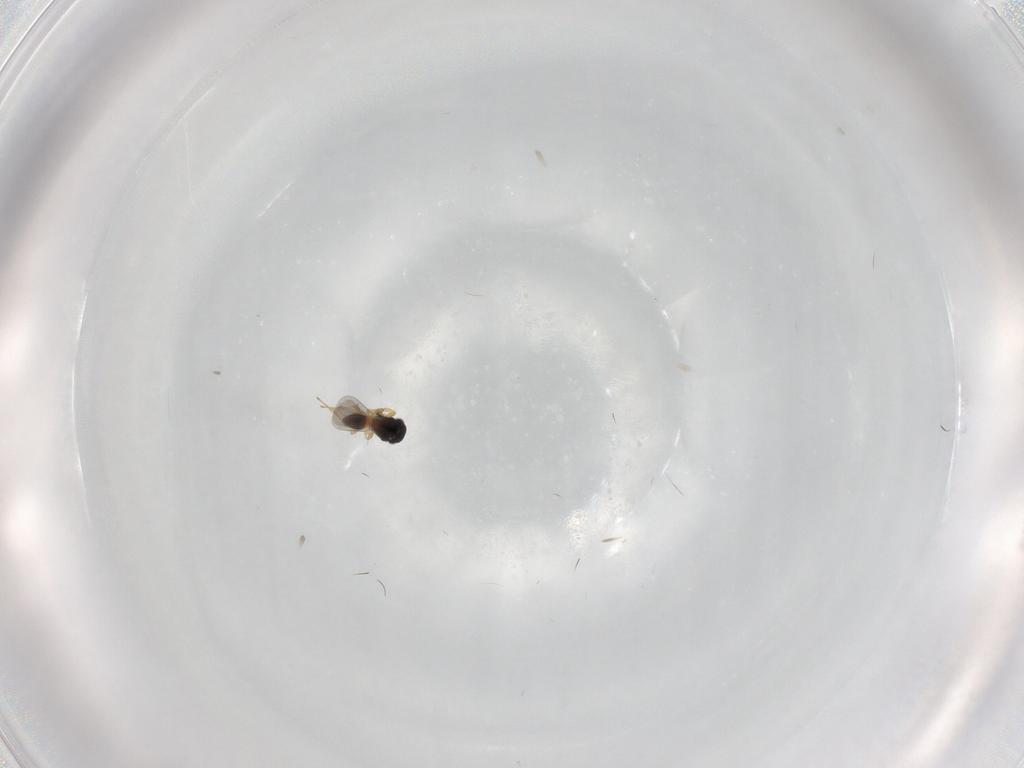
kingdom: Animalia
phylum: Arthropoda
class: Insecta
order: Hymenoptera
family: Platygastridae
